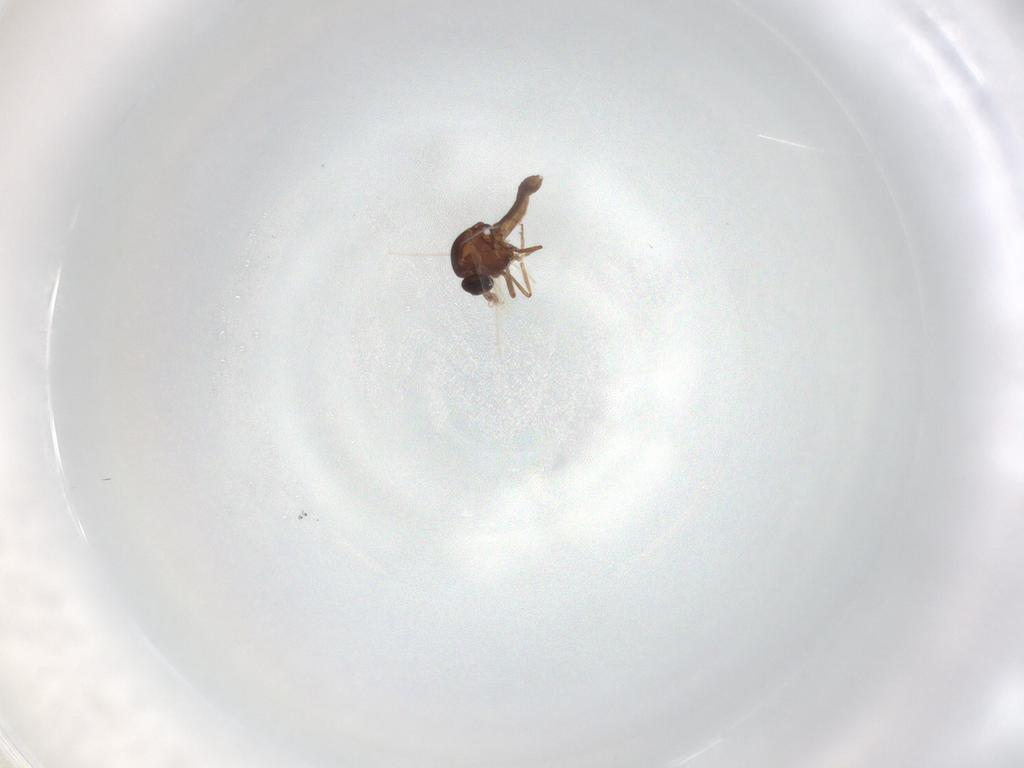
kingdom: Animalia
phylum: Arthropoda
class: Insecta
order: Diptera
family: Ceratopogonidae
